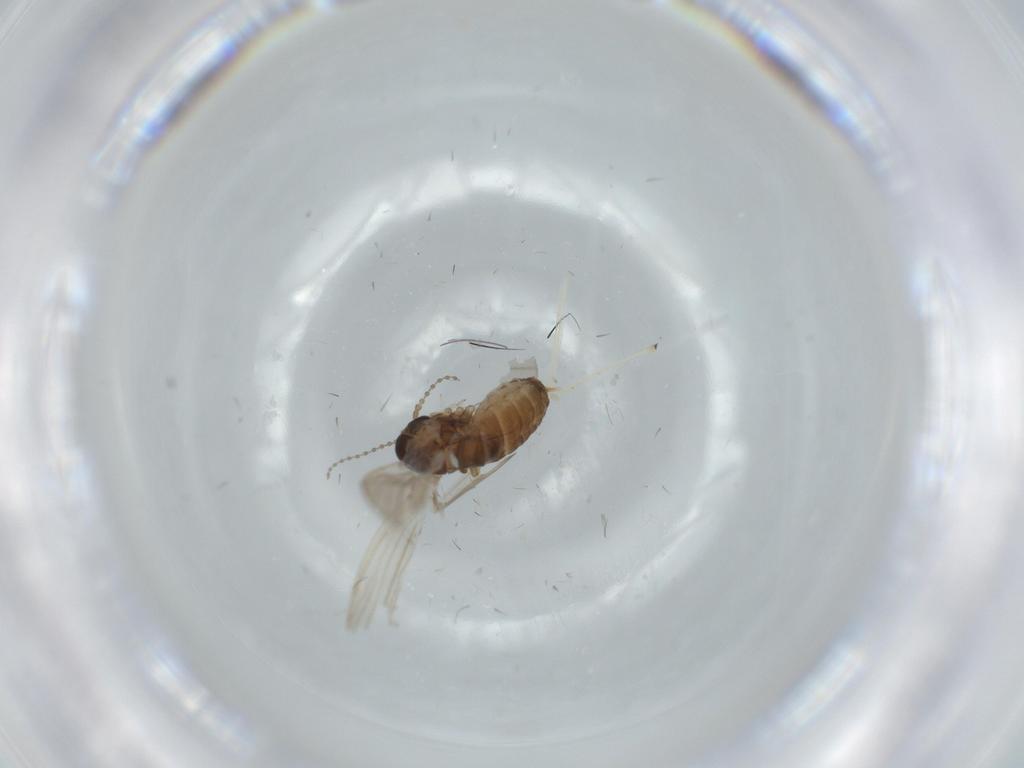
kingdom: Animalia
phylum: Arthropoda
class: Insecta
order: Diptera
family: Psychodidae
